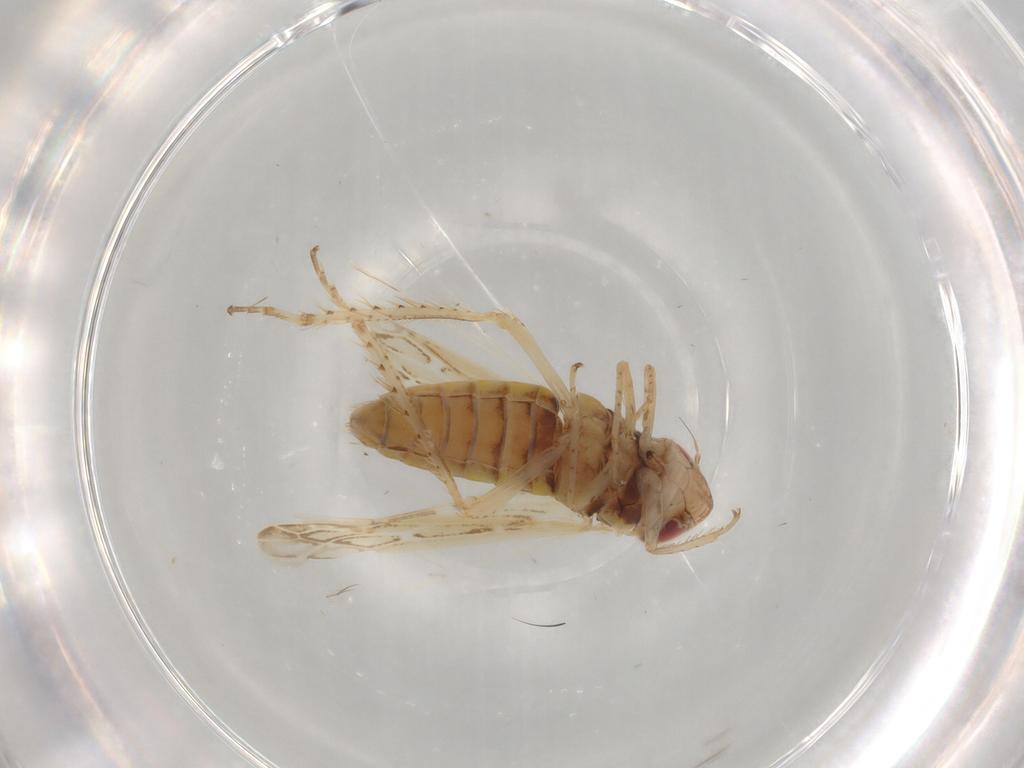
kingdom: Animalia
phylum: Arthropoda
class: Insecta
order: Hemiptera
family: Cicadellidae
